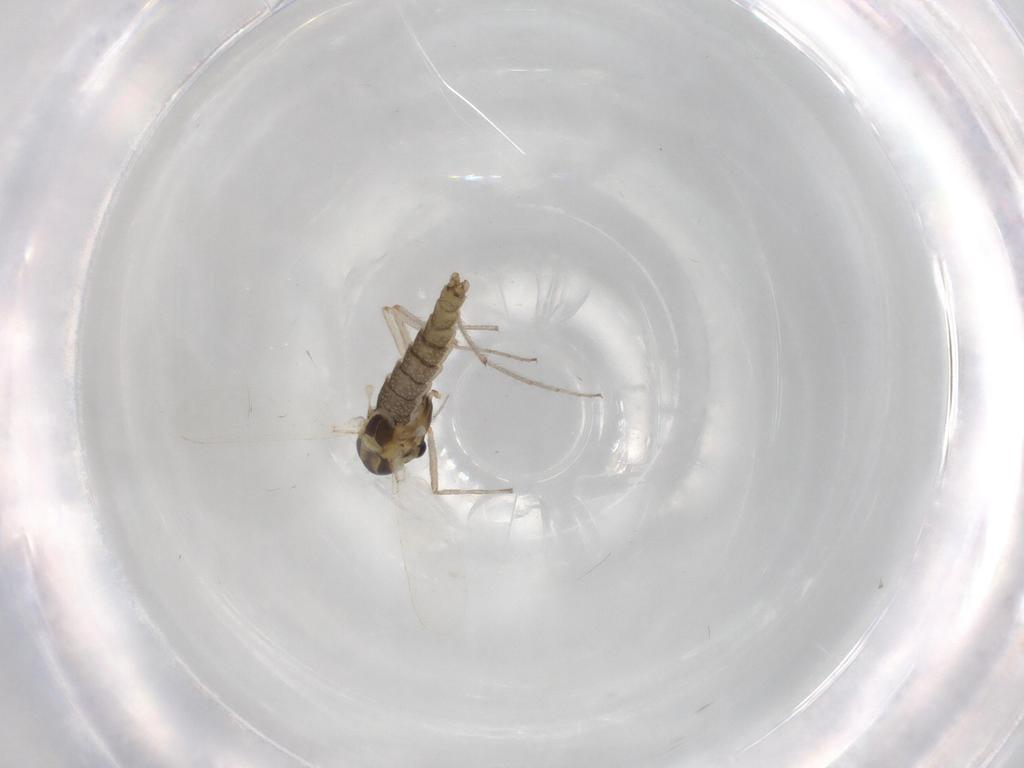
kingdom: Animalia
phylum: Arthropoda
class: Insecta
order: Diptera
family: Chironomidae
